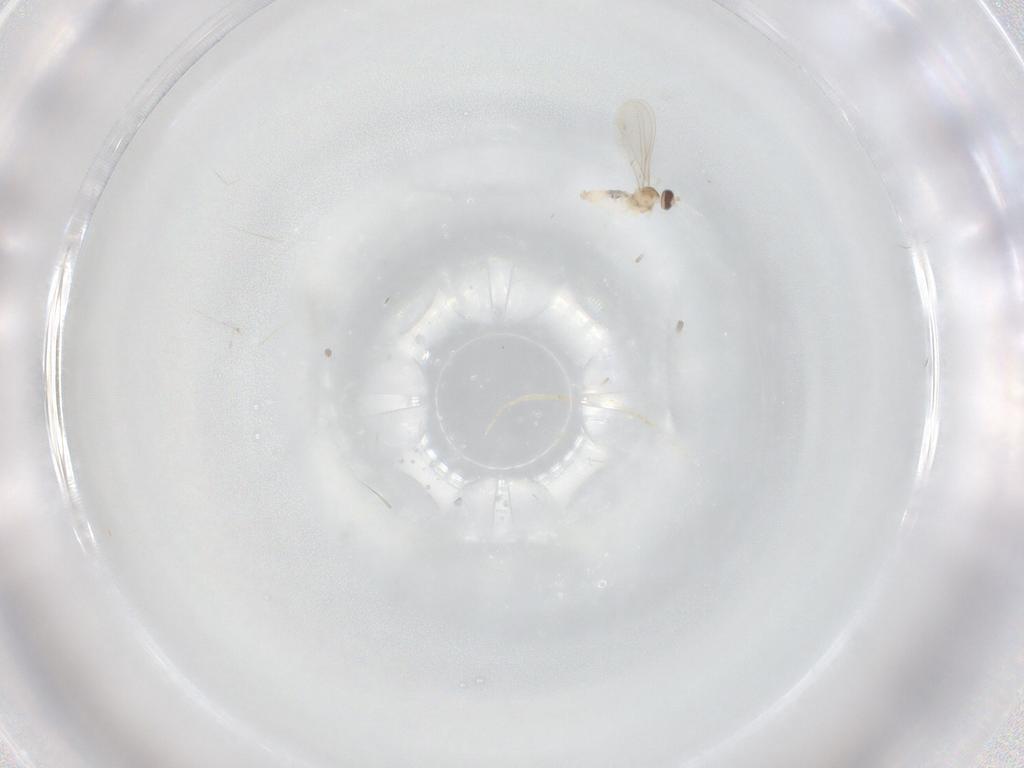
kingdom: Animalia
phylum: Arthropoda
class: Insecta
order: Diptera
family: Cecidomyiidae
